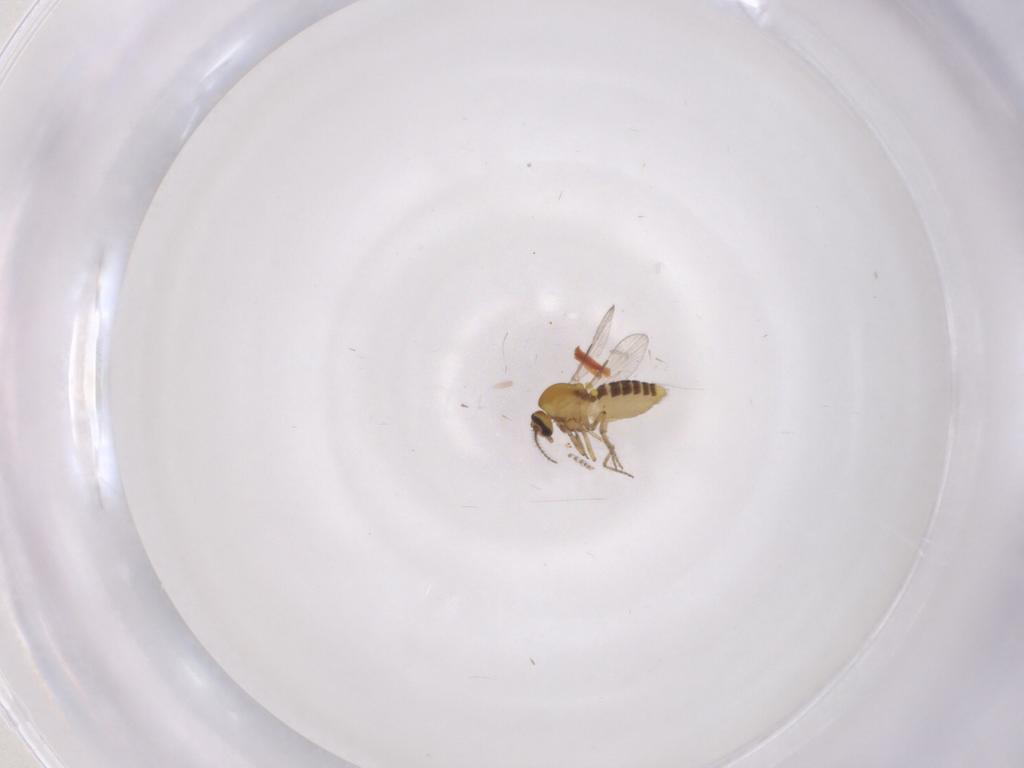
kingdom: Animalia
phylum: Arthropoda
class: Insecta
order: Diptera
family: Ceratopogonidae
